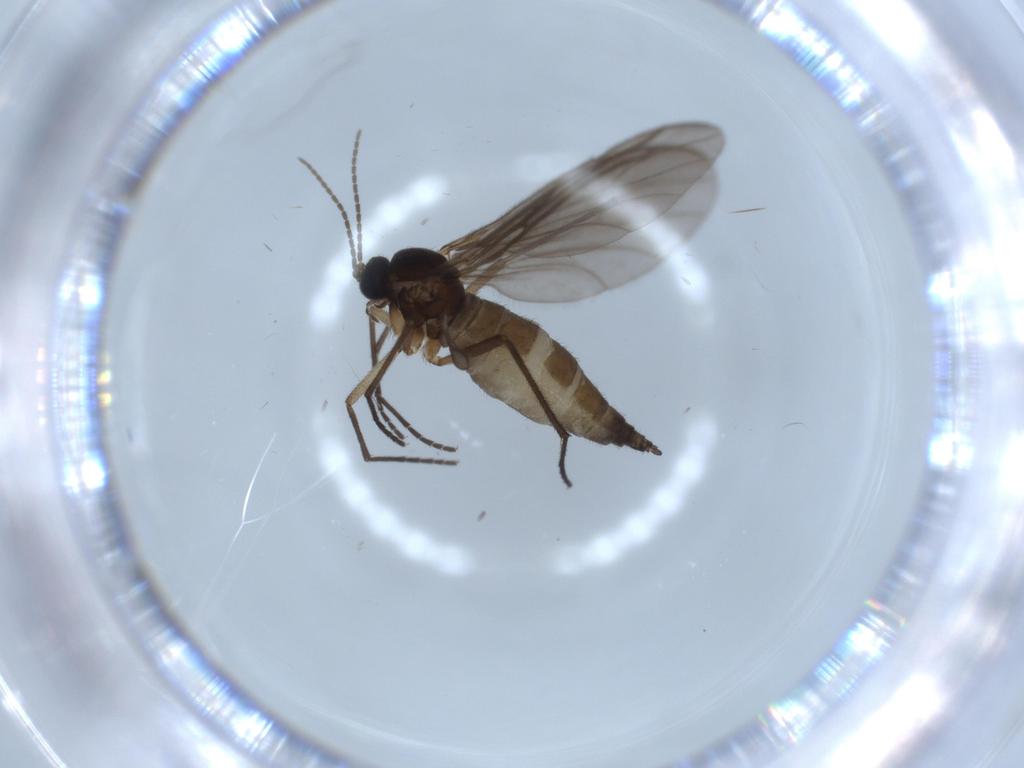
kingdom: Animalia
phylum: Arthropoda
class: Insecta
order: Diptera
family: Sciaridae
